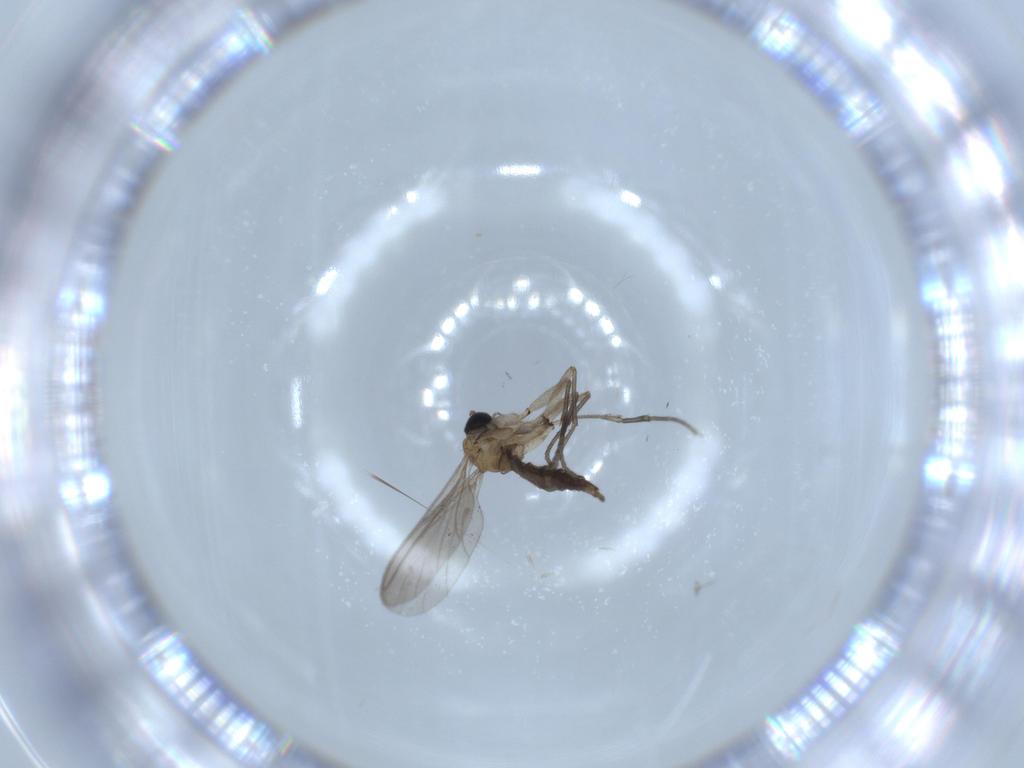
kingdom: Animalia
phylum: Arthropoda
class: Insecta
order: Diptera
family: Sciaridae
